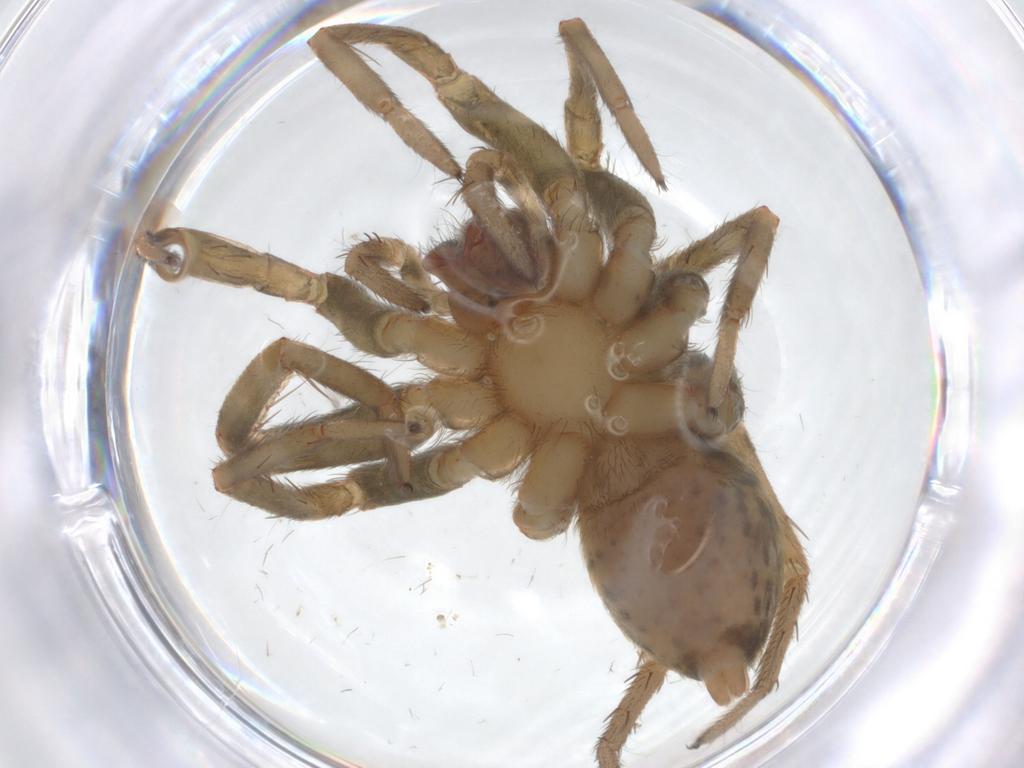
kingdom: Animalia
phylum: Arthropoda
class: Arachnida
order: Araneae
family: Agelenidae
